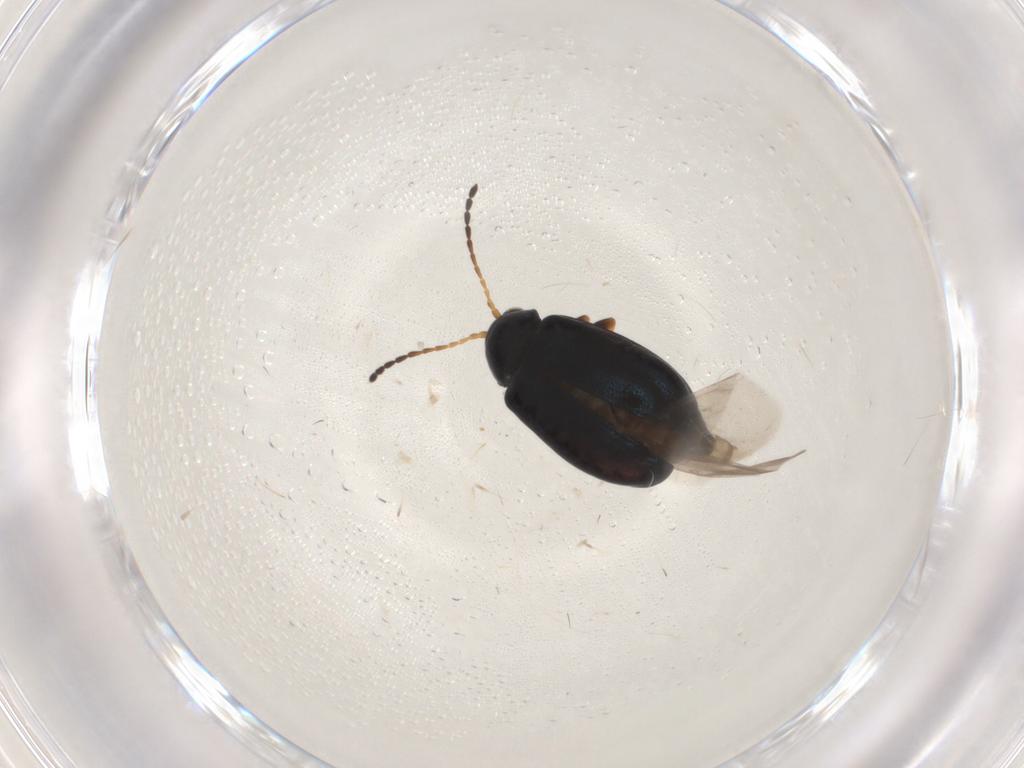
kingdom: Animalia
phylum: Arthropoda
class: Insecta
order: Coleoptera
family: Chrysomelidae
